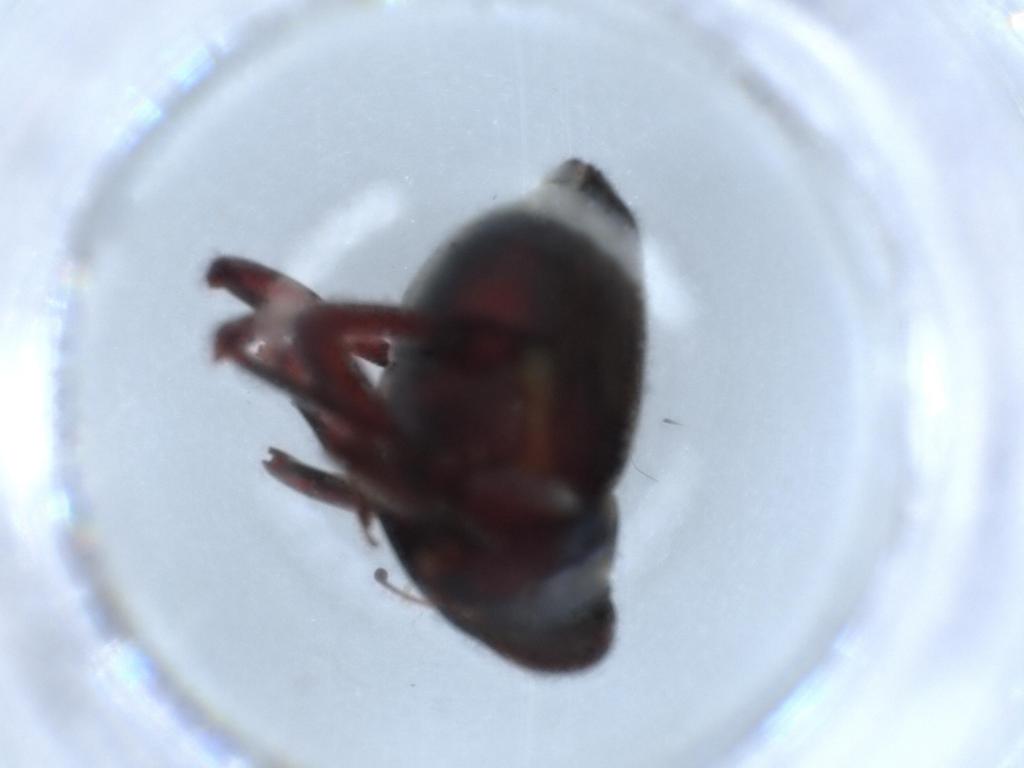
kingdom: Animalia
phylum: Arthropoda
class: Insecta
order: Coleoptera
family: Curculionidae
